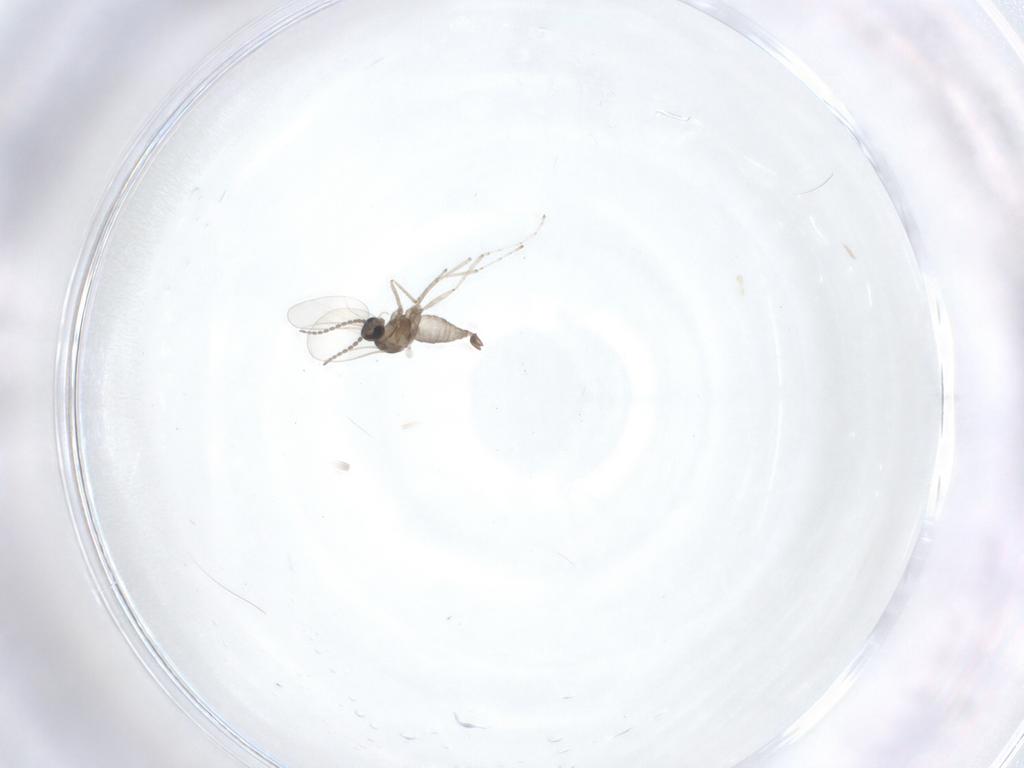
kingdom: Animalia
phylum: Arthropoda
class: Insecta
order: Diptera
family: Cecidomyiidae
